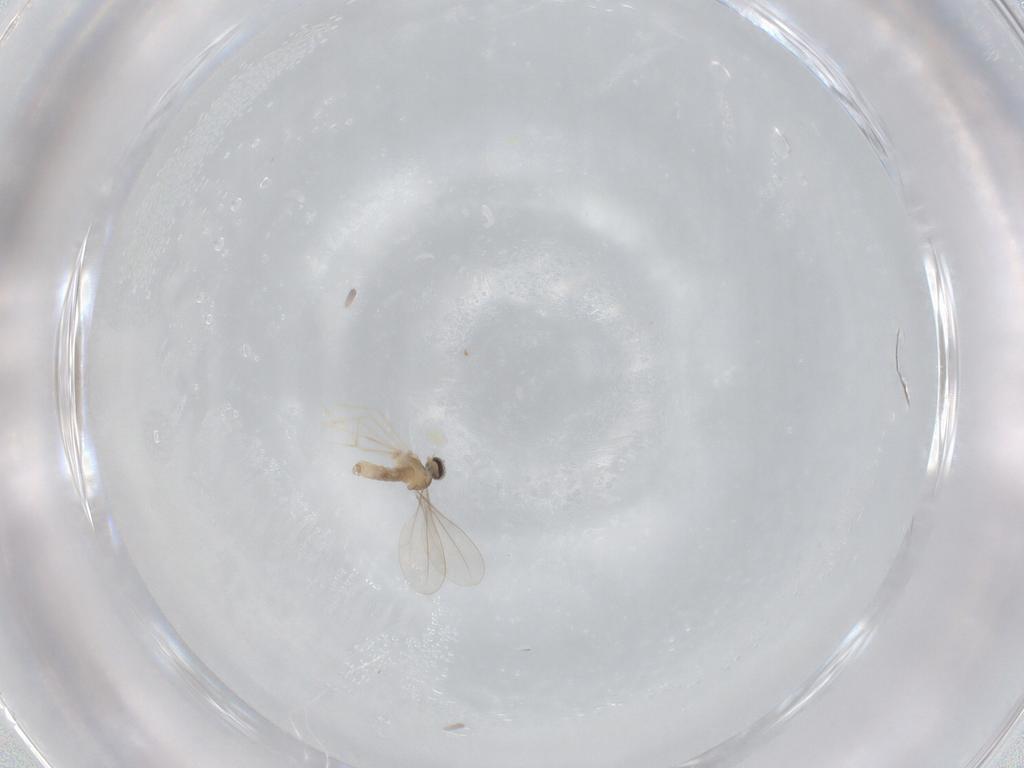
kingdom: Animalia
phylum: Arthropoda
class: Insecta
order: Diptera
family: Cecidomyiidae
